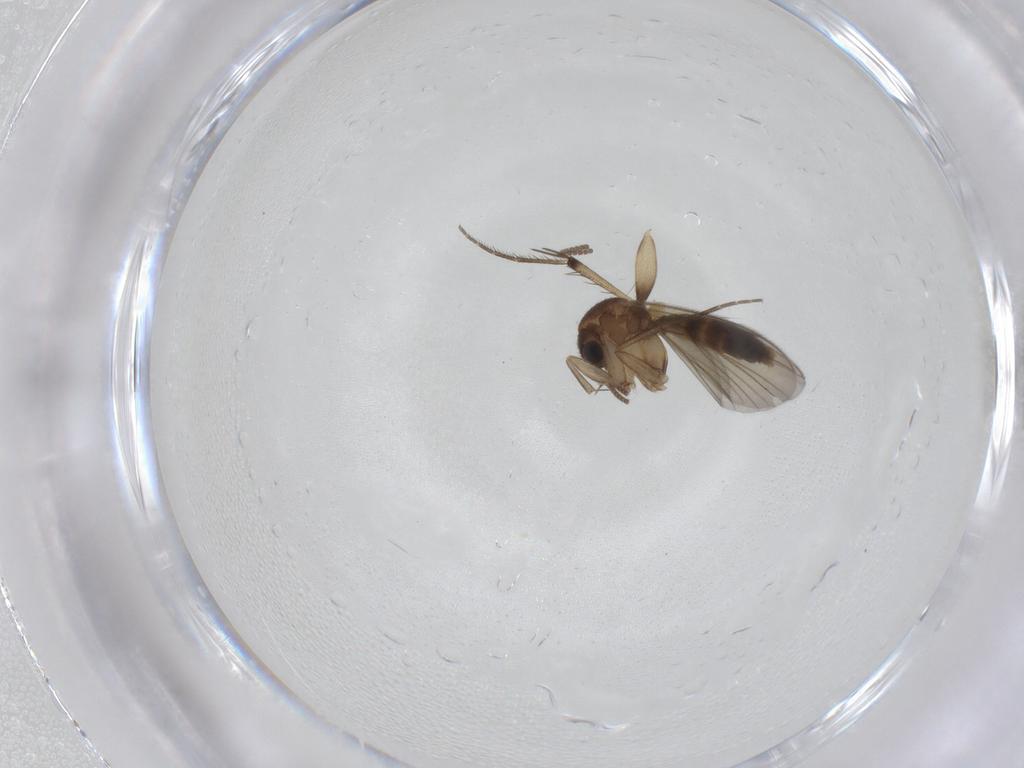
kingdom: Animalia
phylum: Arthropoda
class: Insecta
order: Diptera
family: Mycetophilidae
